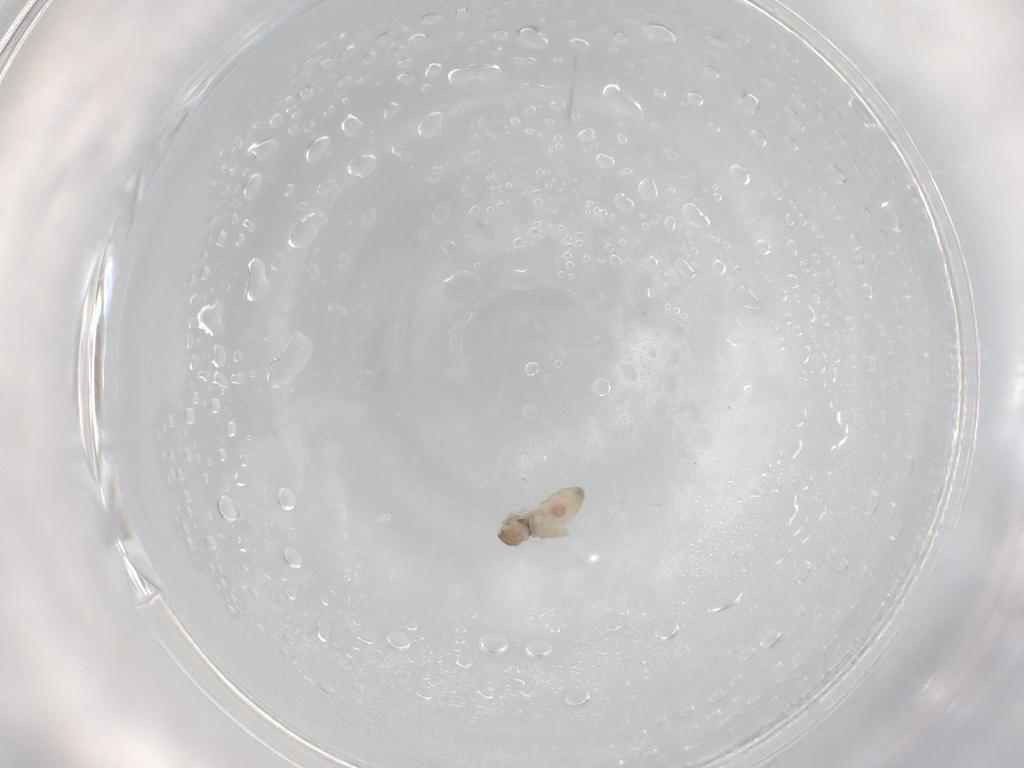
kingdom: Animalia
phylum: Arthropoda
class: Insecta
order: Diptera
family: Cecidomyiidae
